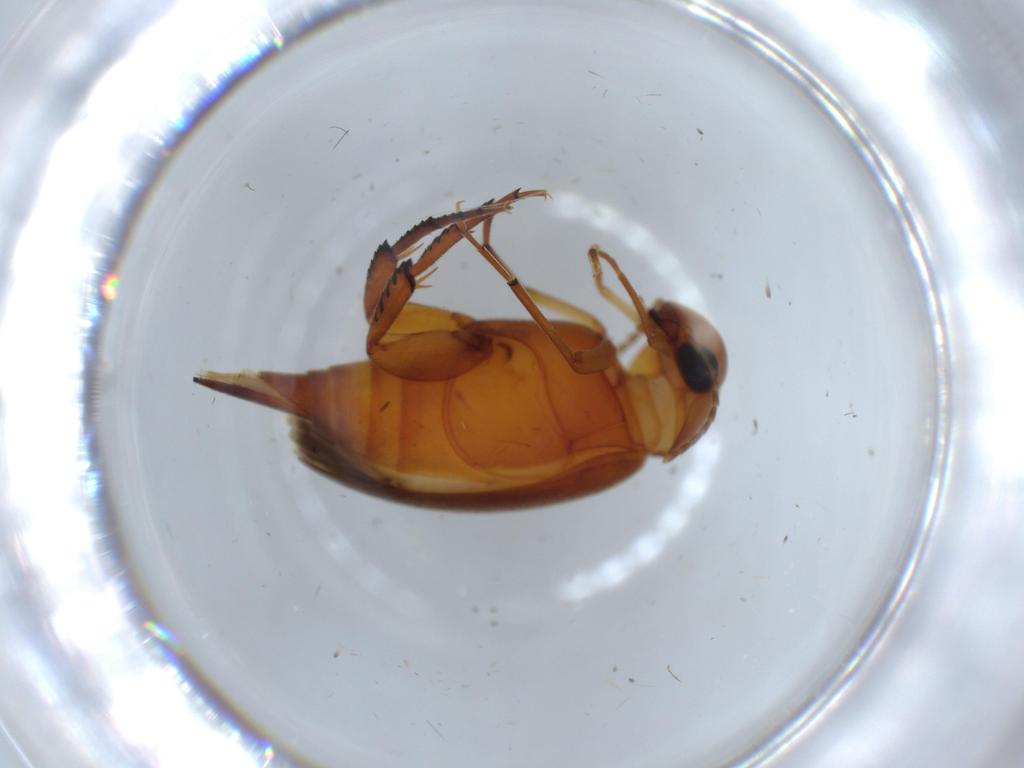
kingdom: Animalia
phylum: Arthropoda
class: Insecta
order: Coleoptera
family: Mordellidae
